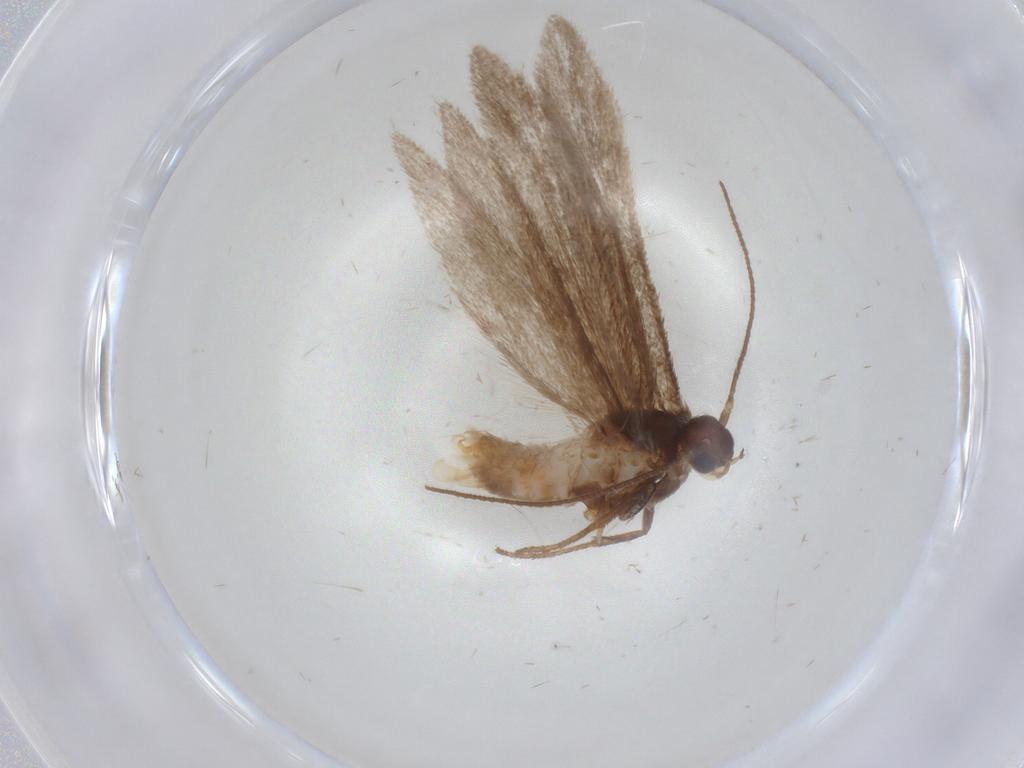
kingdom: Animalia
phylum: Arthropoda
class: Insecta
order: Lepidoptera
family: Limacodidae
